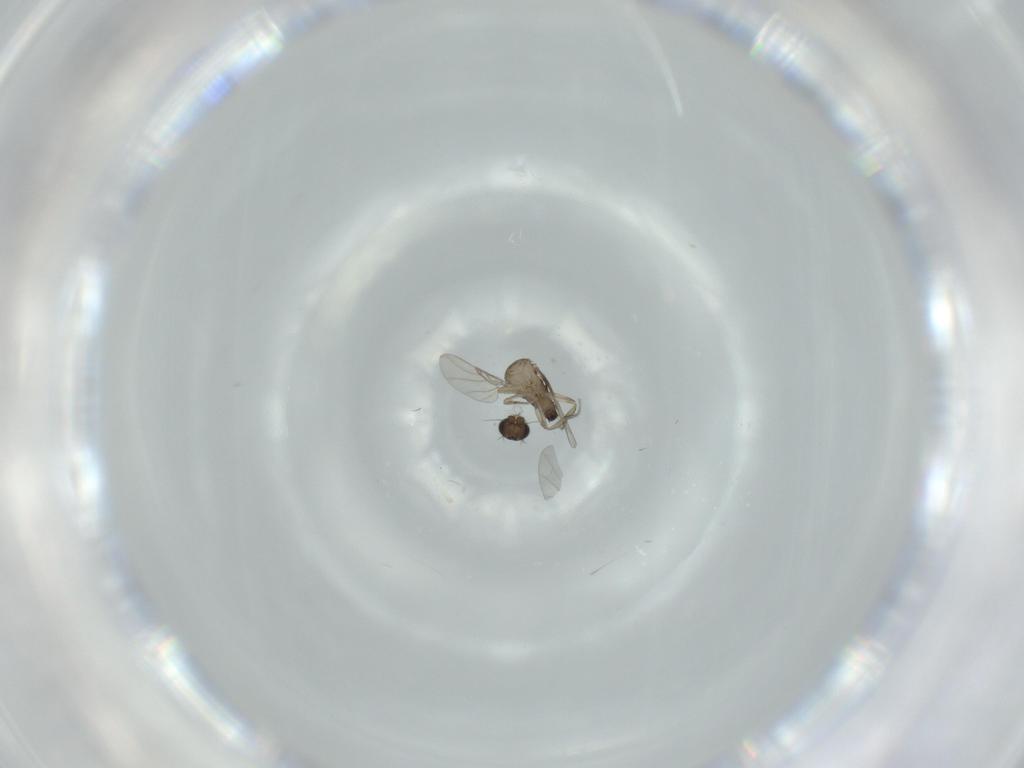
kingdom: Animalia
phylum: Arthropoda
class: Insecta
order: Diptera
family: Phoridae
